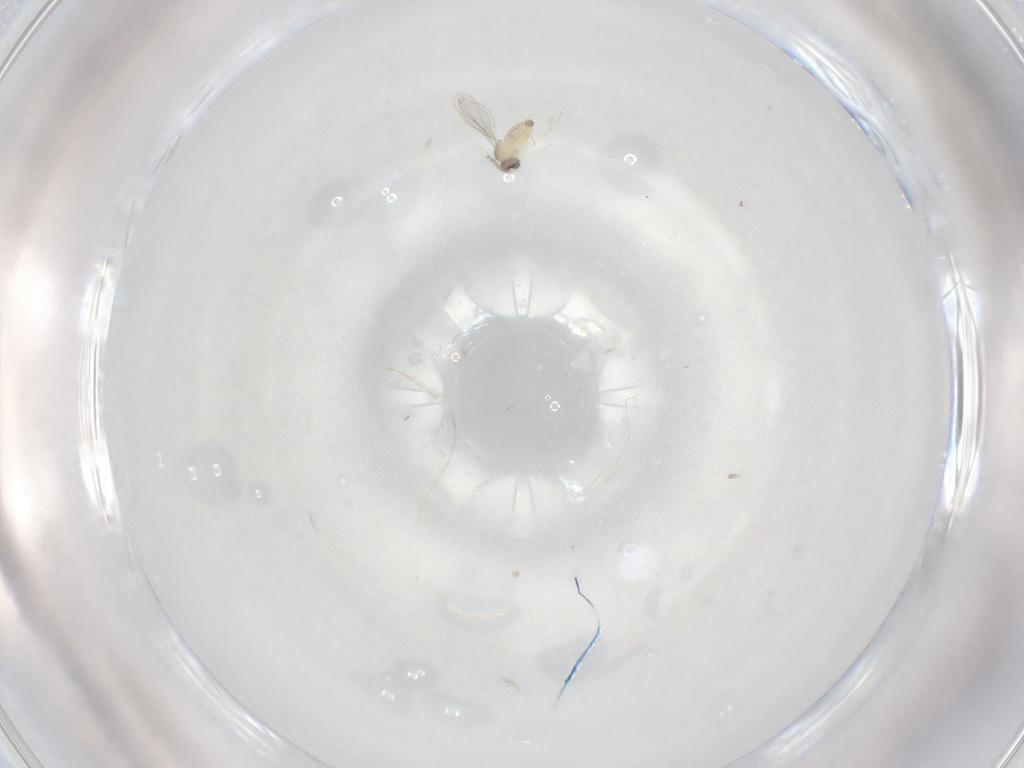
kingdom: Animalia
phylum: Arthropoda
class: Insecta
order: Diptera
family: Cecidomyiidae
